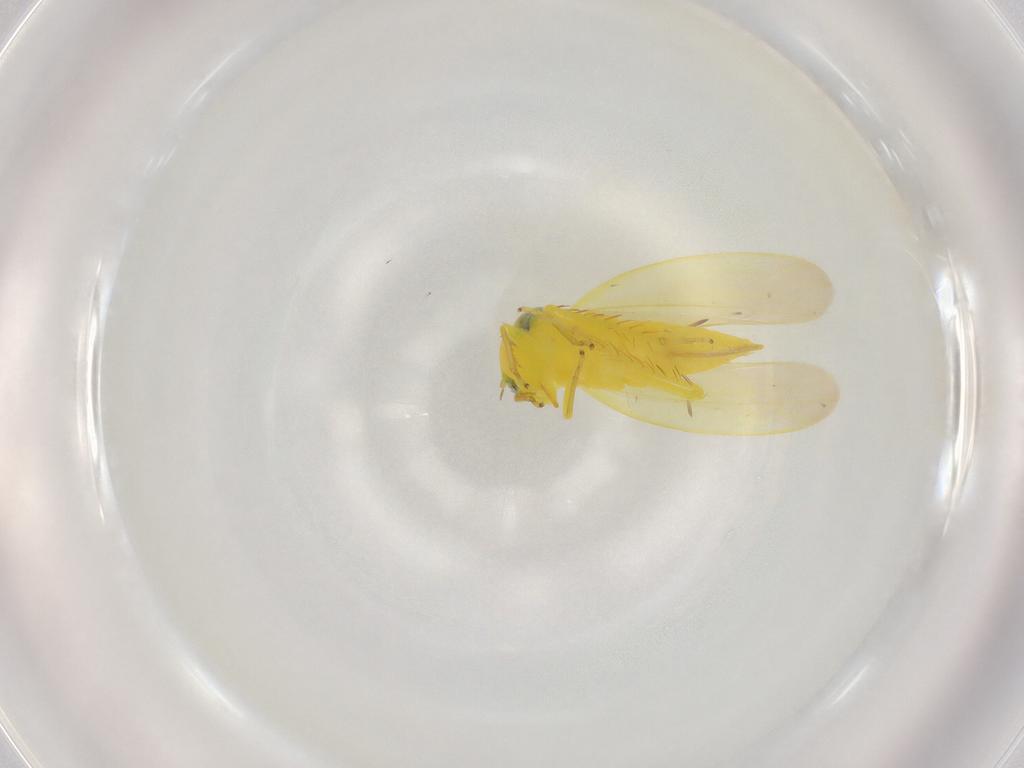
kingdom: Animalia
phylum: Arthropoda
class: Insecta
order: Hemiptera
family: Cicadellidae
